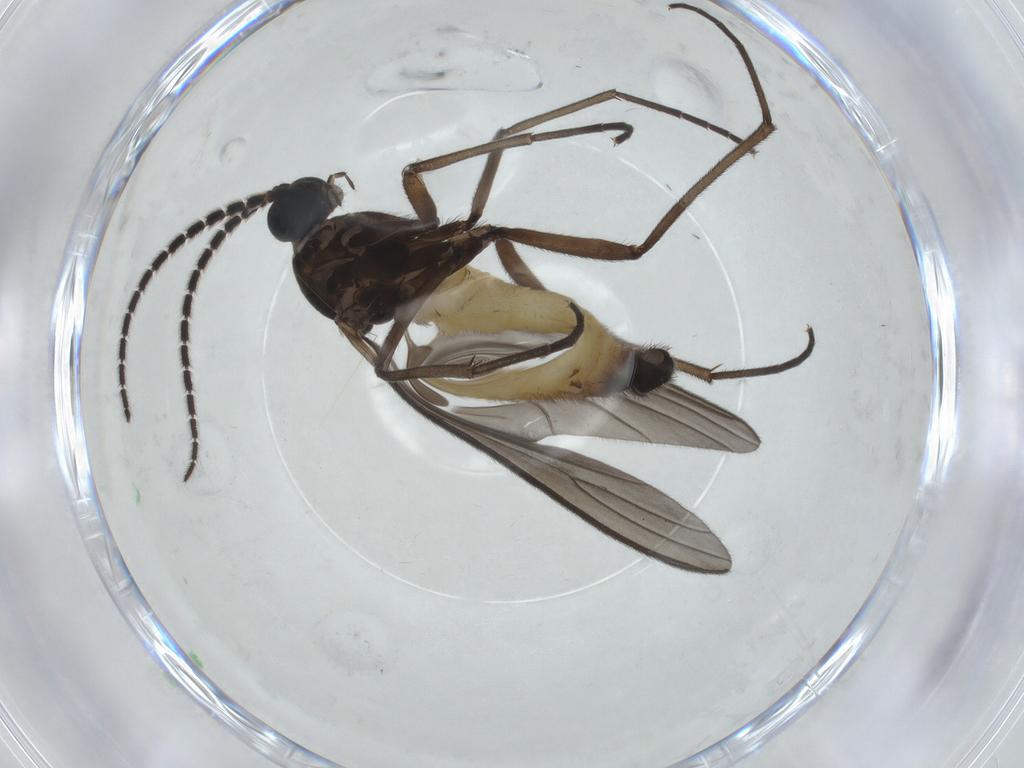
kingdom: Animalia
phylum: Arthropoda
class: Insecta
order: Diptera
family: Sciaridae
